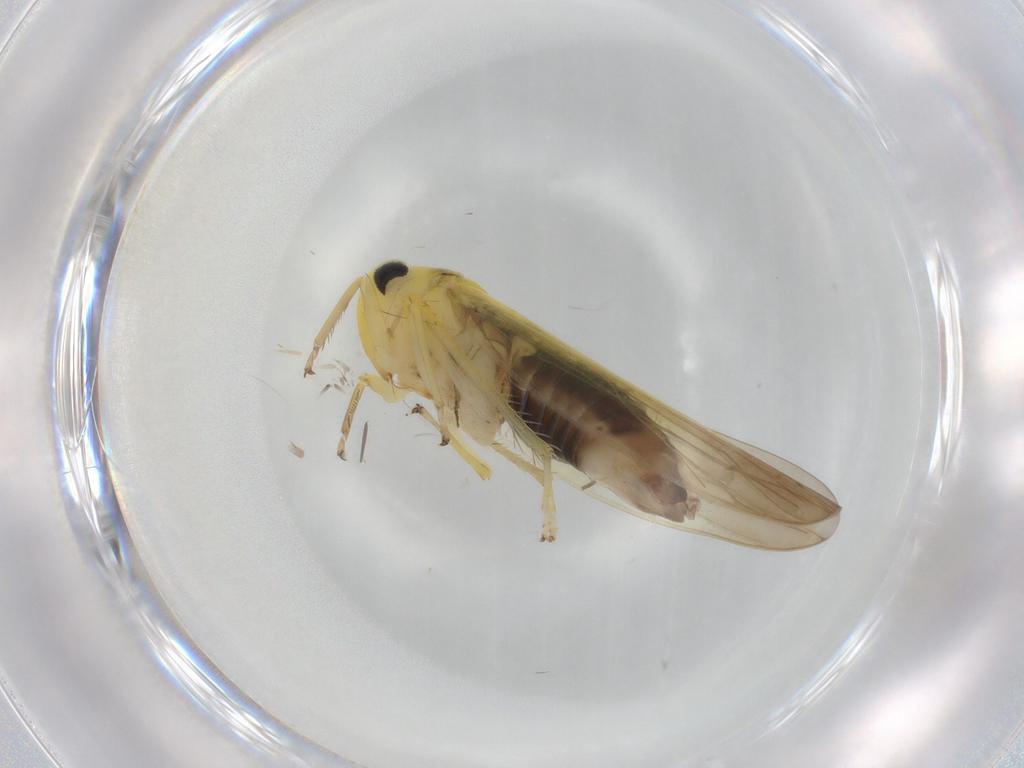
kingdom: Animalia
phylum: Arthropoda
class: Insecta
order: Hemiptera
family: Cicadellidae
